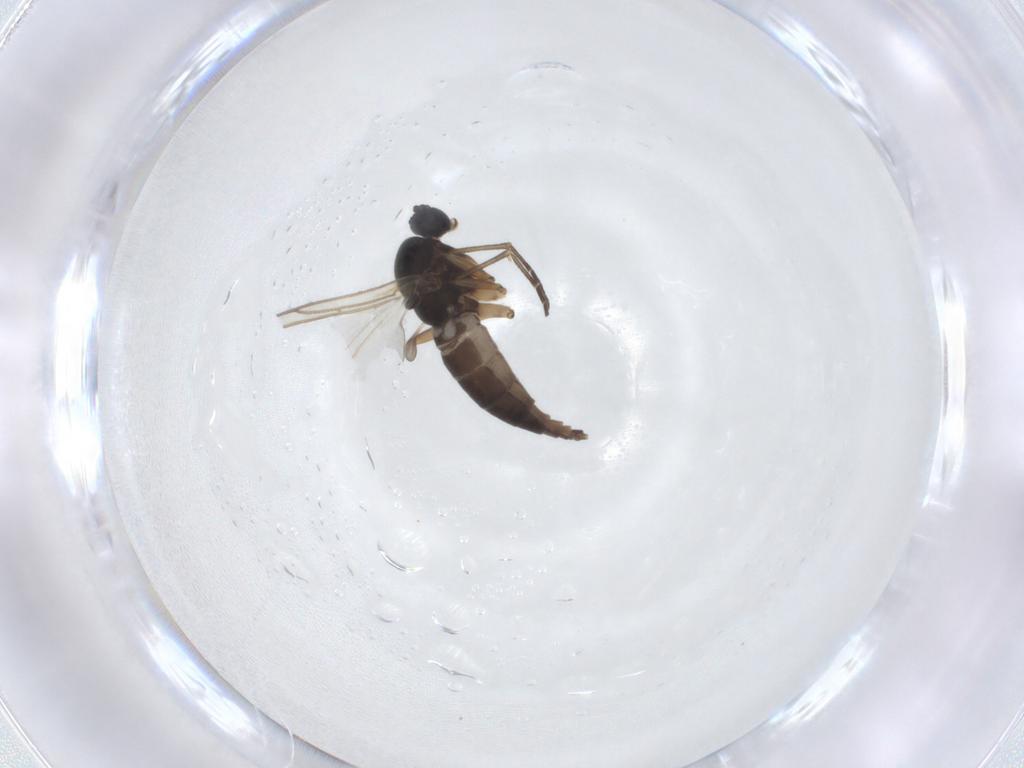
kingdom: Animalia
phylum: Arthropoda
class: Insecta
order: Diptera
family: Sciaridae
